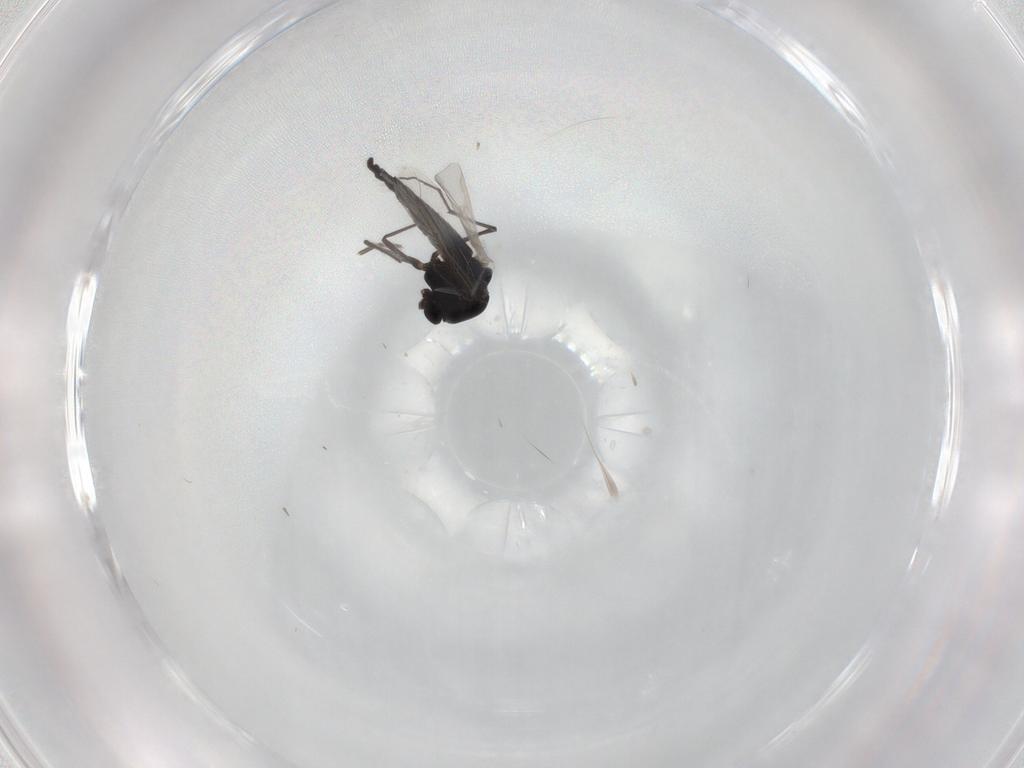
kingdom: Animalia
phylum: Arthropoda
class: Insecta
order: Diptera
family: Chironomidae
